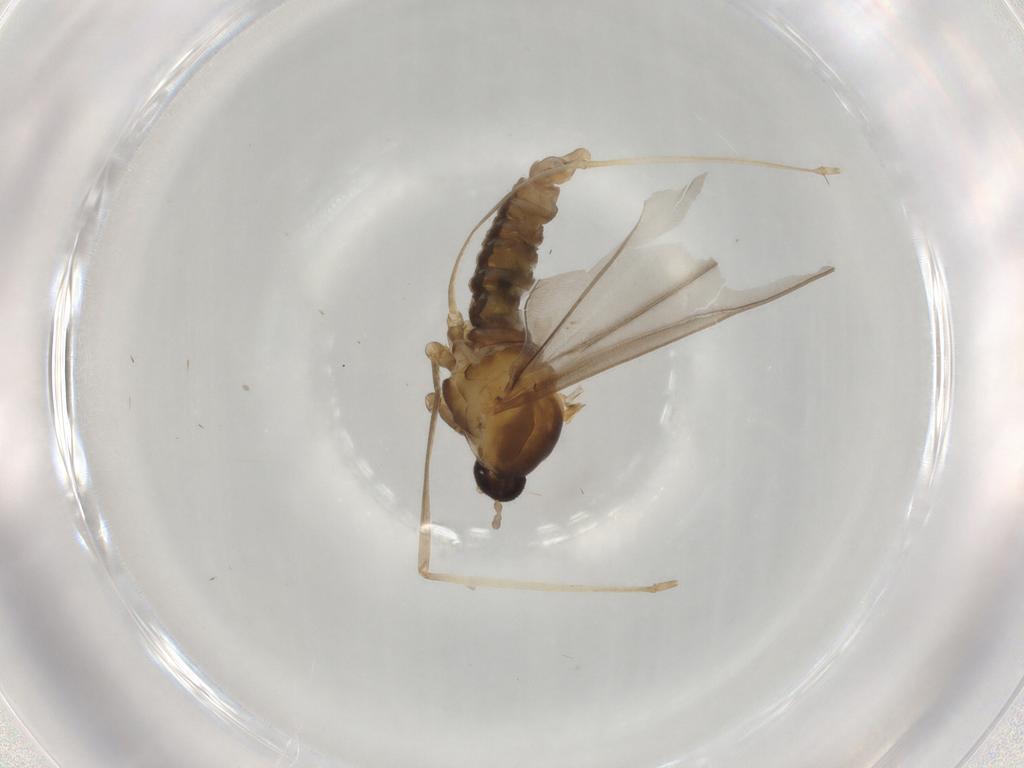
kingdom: Animalia
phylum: Arthropoda
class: Insecta
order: Diptera
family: Cecidomyiidae
